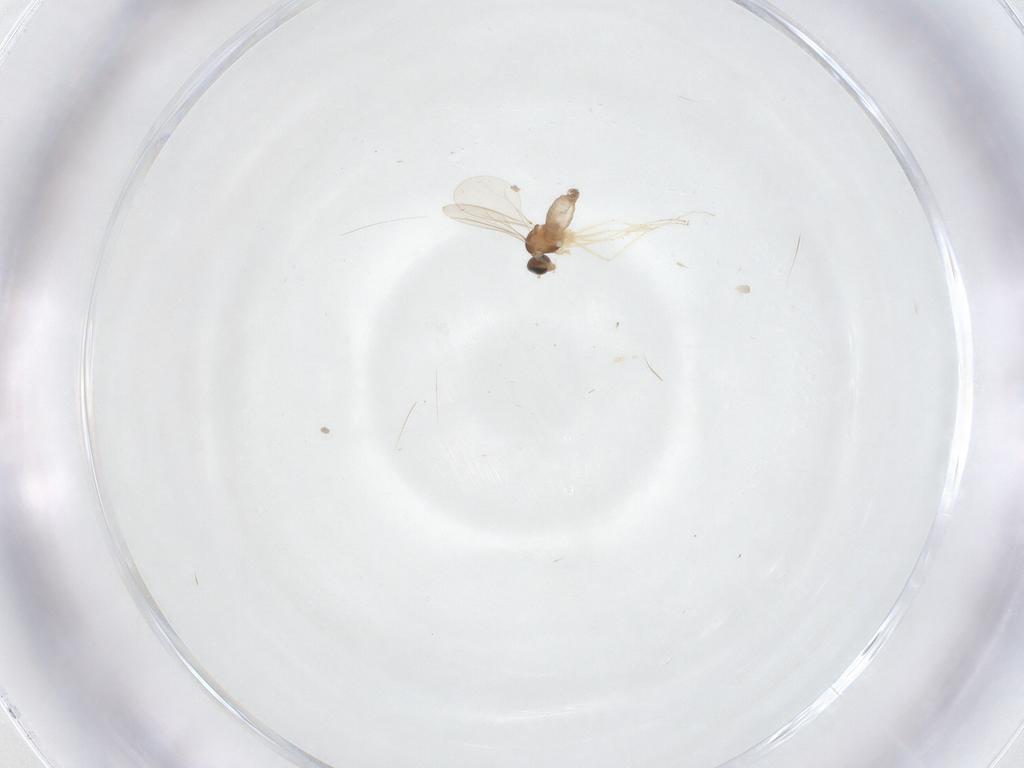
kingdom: Animalia
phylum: Arthropoda
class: Insecta
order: Diptera
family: Cecidomyiidae
